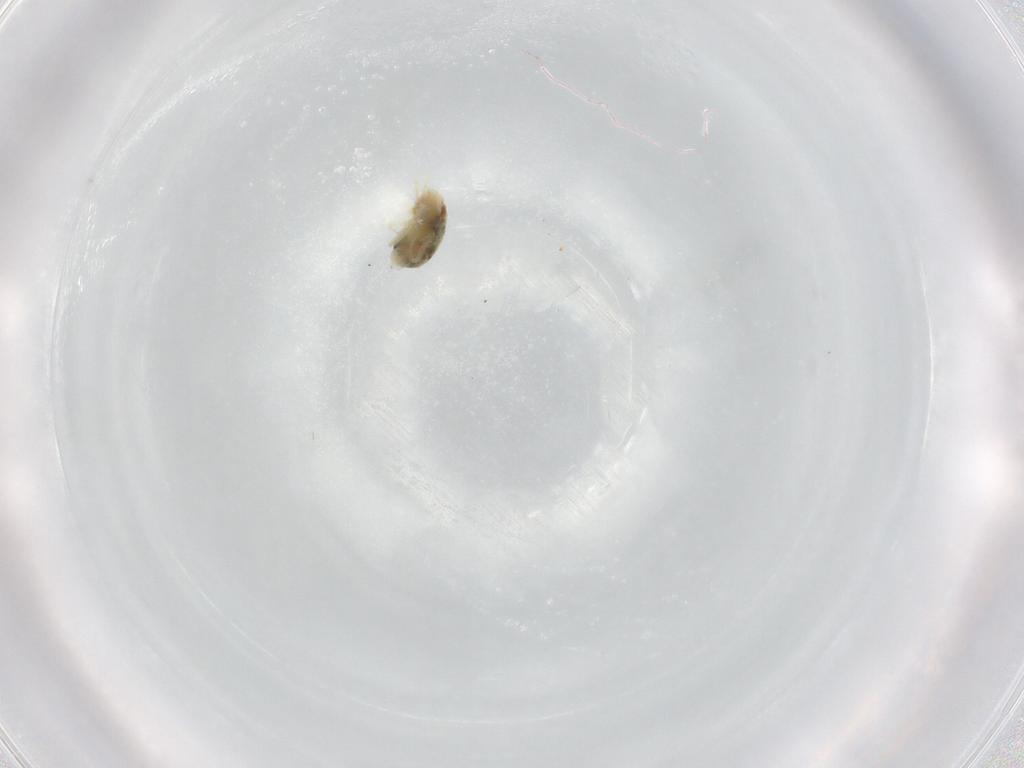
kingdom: Animalia
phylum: Arthropoda
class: Arachnida
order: Trombidiformes
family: Tetranychidae
